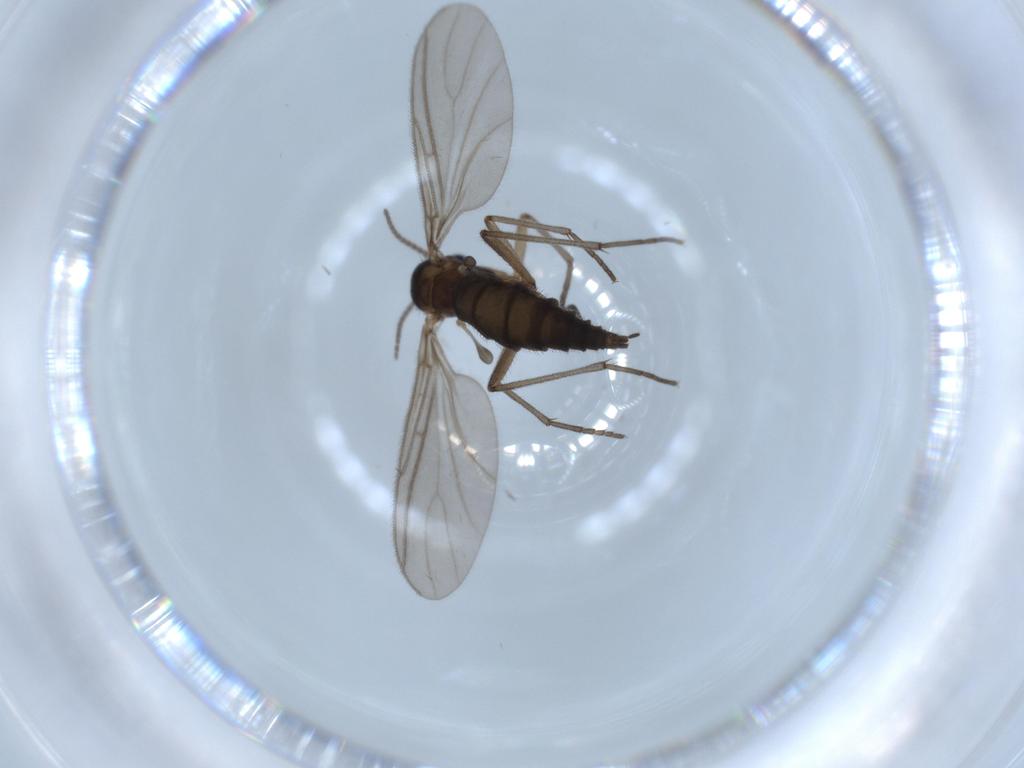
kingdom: Animalia
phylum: Arthropoda
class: Insecta
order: Diptera
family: Sciaridae
